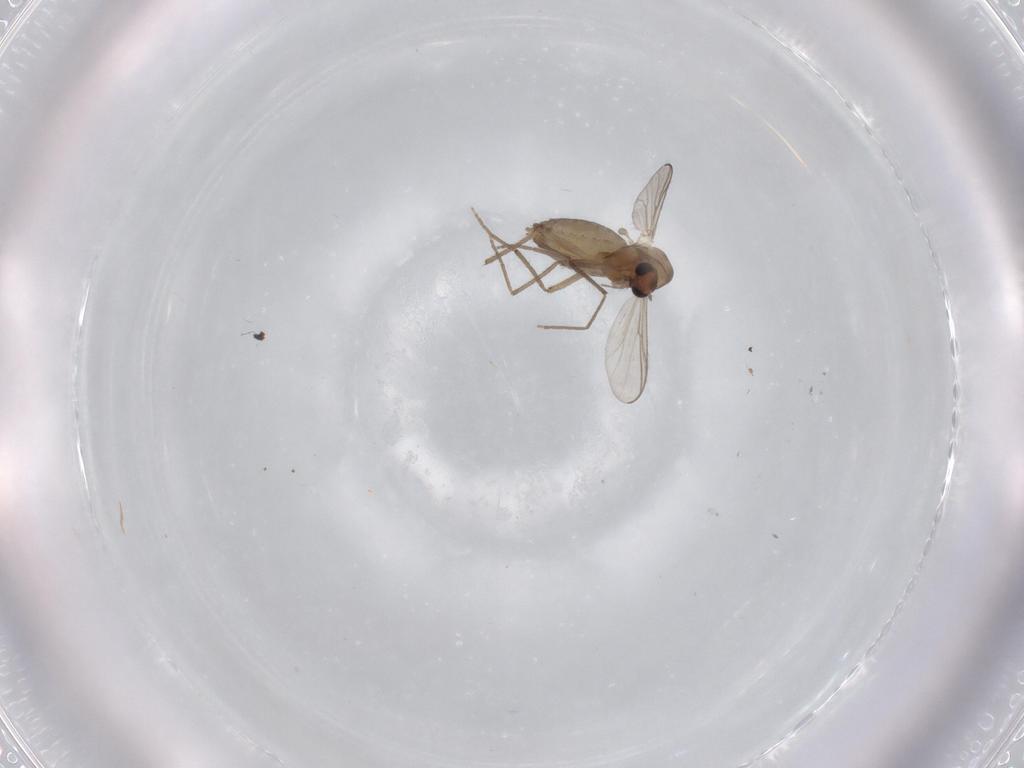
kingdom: Animalia
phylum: Arthropoda
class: Insecta
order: Diptera
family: Chironomidae
